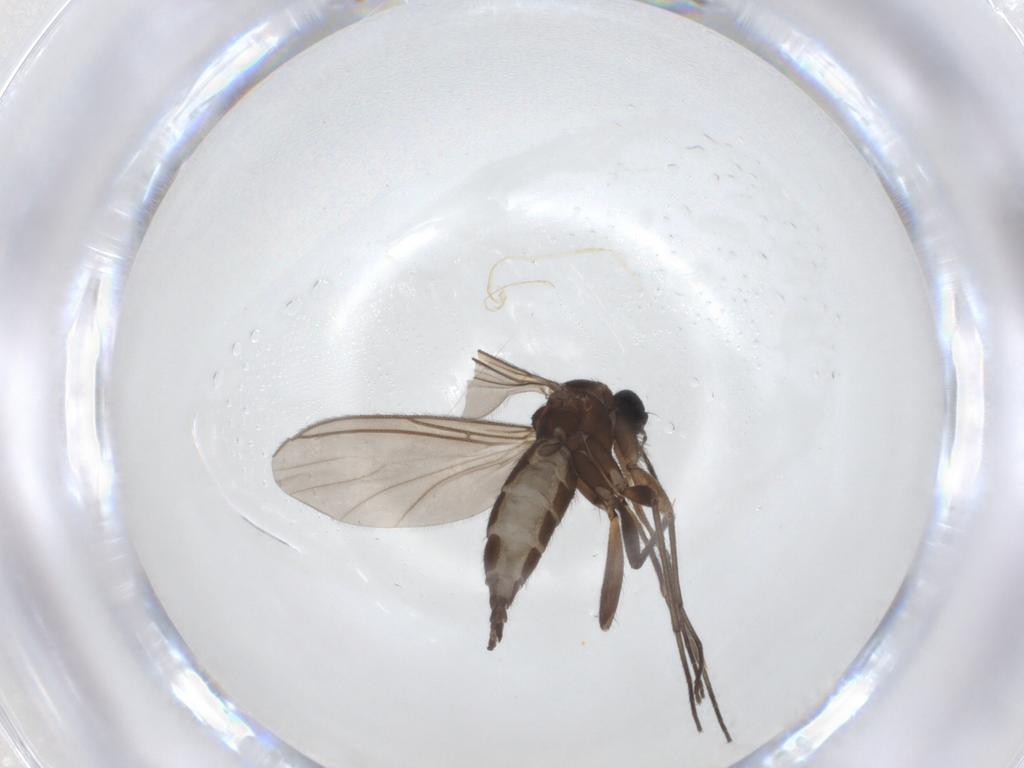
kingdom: Animalia
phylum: Arthropoda
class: Insecta
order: Diptera
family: Sciaridae
